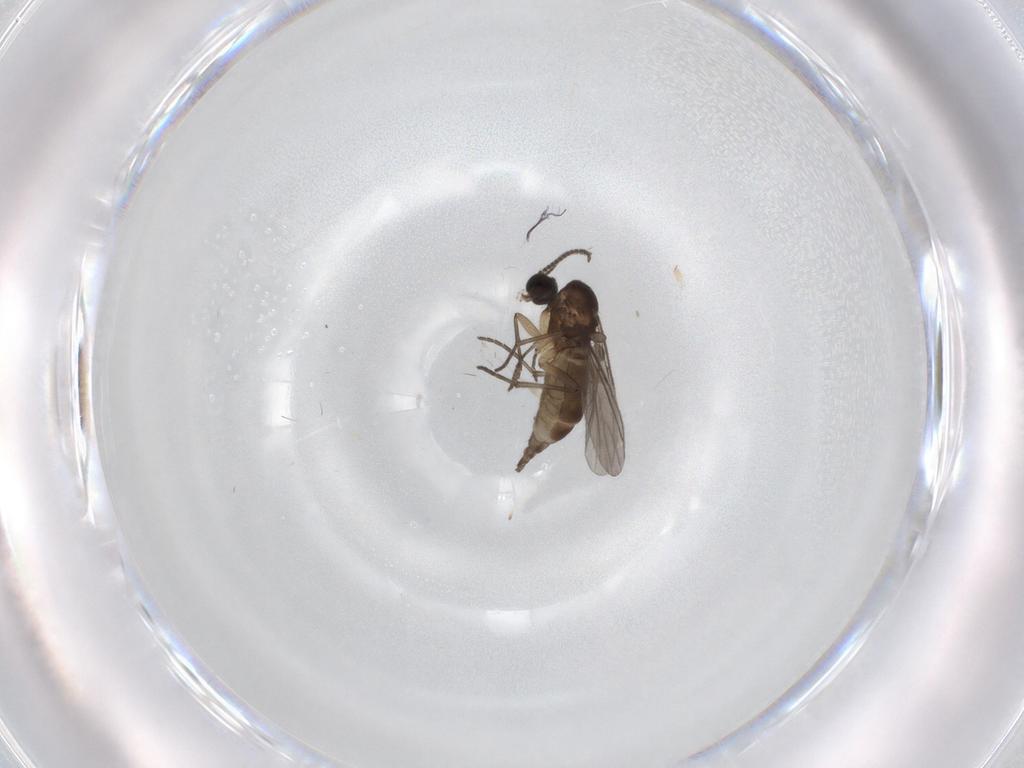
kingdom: Animalia
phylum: Arthropoda
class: Insecta
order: Diptera
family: Sciaridae
